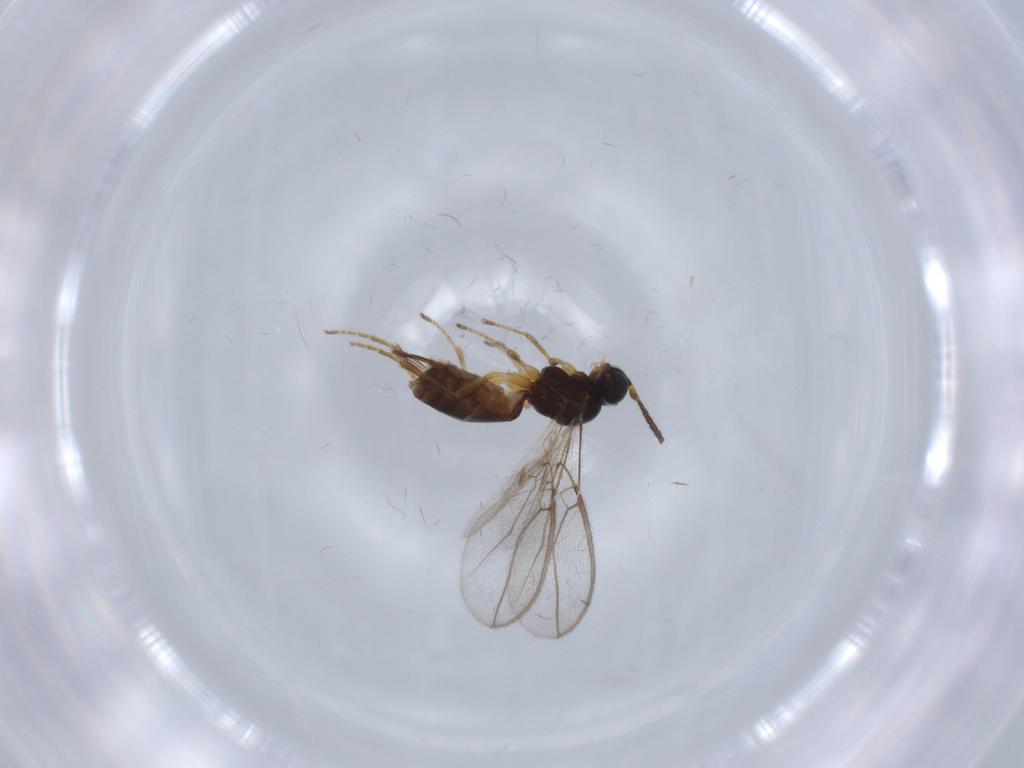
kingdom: Animalia
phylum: Arthropoda
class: Insecta
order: Hymenoptera
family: Braconidae
